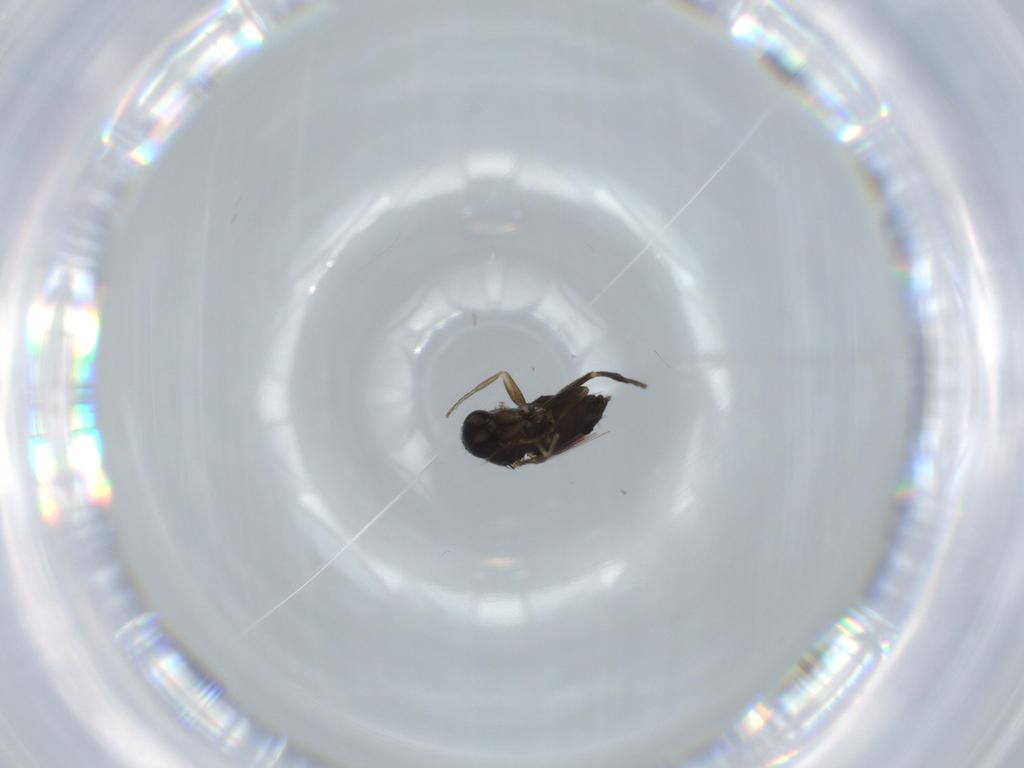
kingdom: Animalia
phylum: Arthropoda
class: Insecta
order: Diptera
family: Phoridae
